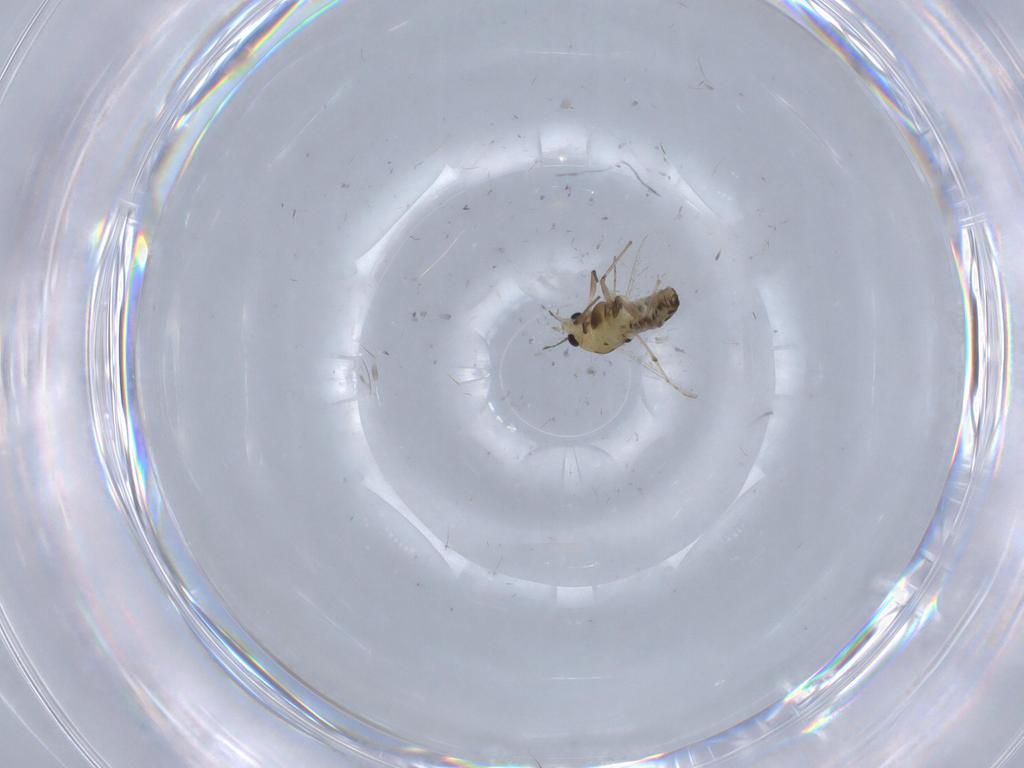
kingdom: Animalia
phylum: Arthropoda
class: Insecta
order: Diptera
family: Chironomidae
